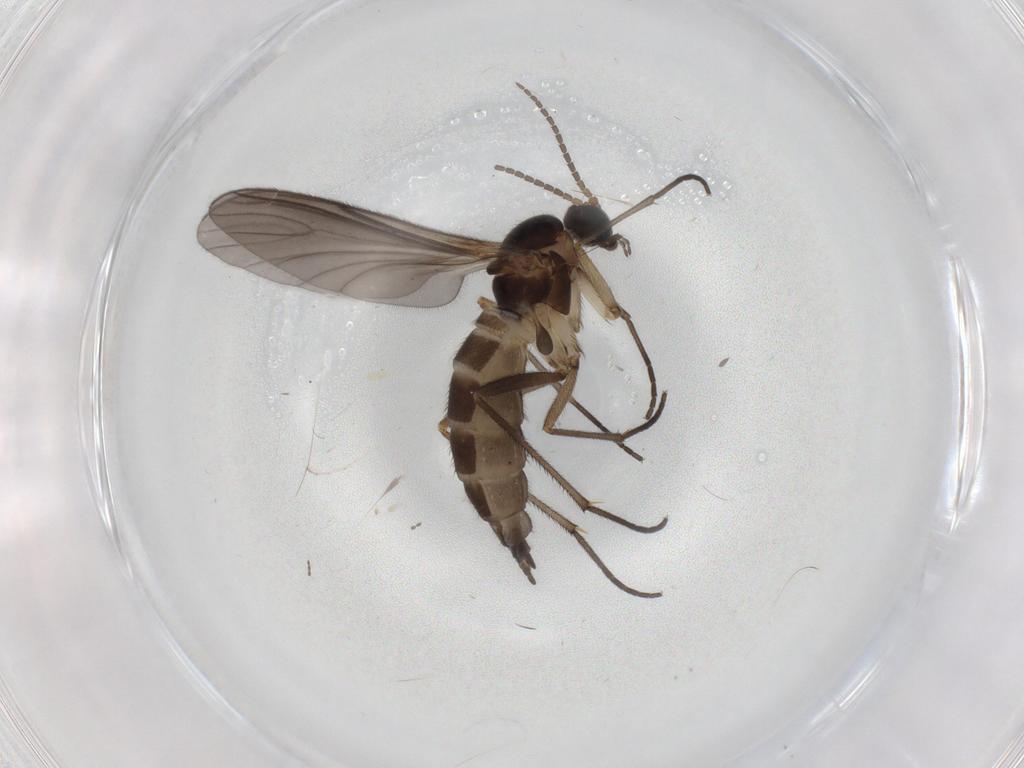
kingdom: Animalia
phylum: Arthropoda
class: Insecta
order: Diptera
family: Sciaridae
